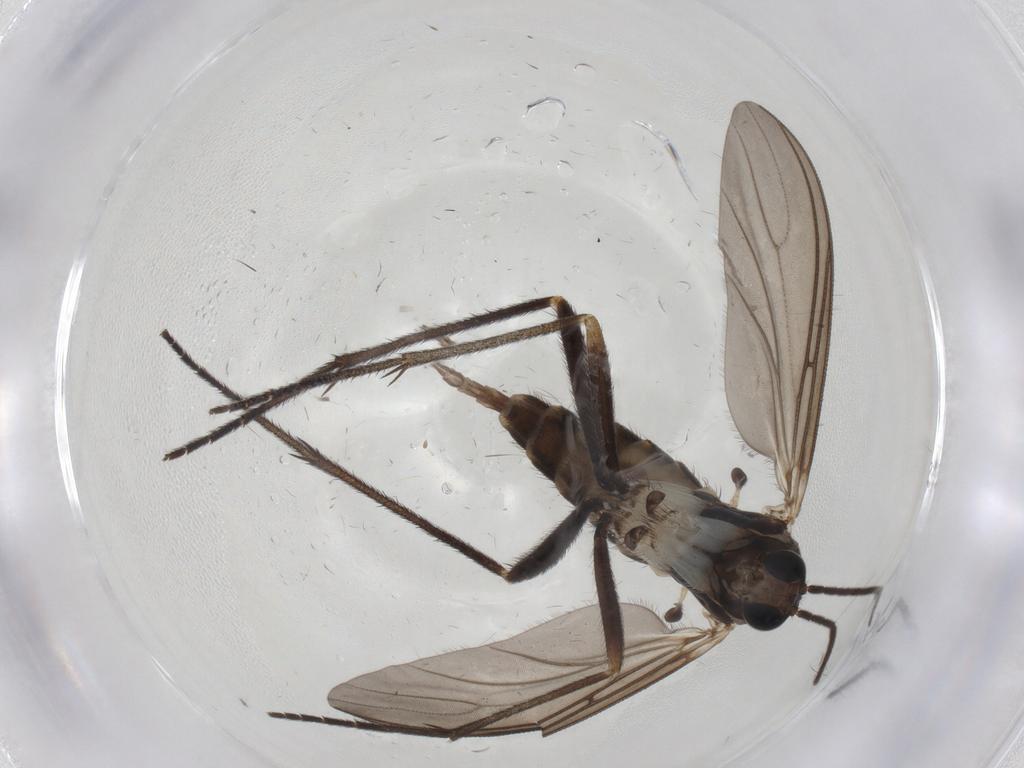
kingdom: Animalia
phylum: Arthropoda
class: Insecta
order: Diptera
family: Sciaridae
